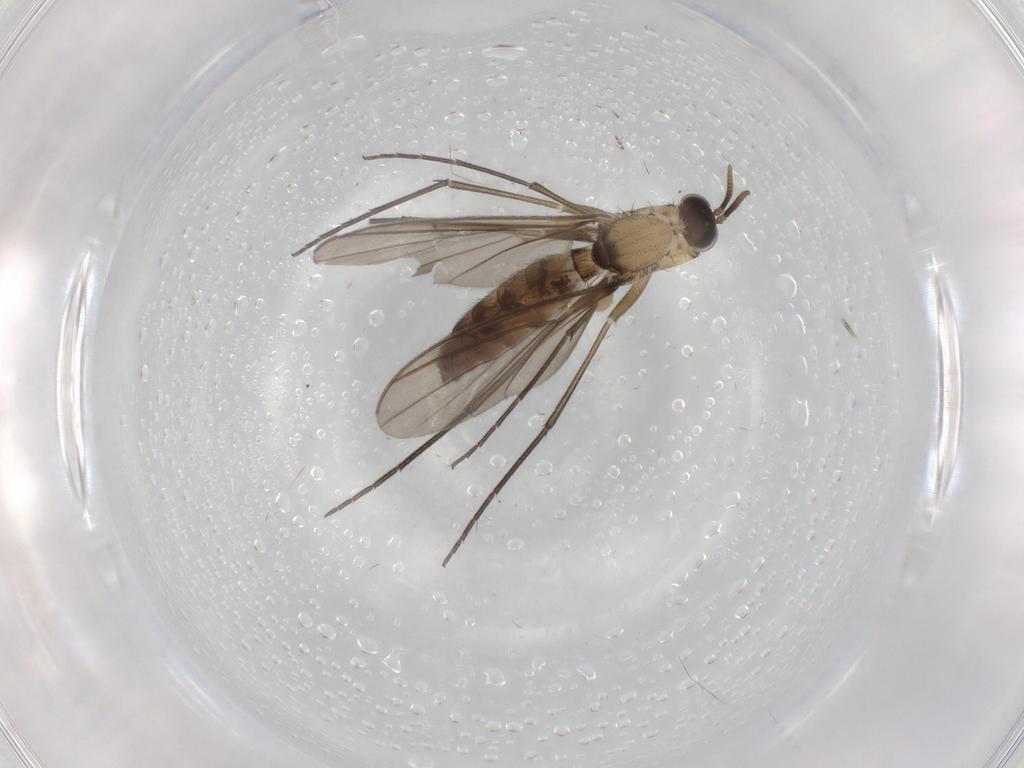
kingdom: Animalia
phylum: Arthropoda
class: Insecta
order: Diptera
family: Keroplatidae
